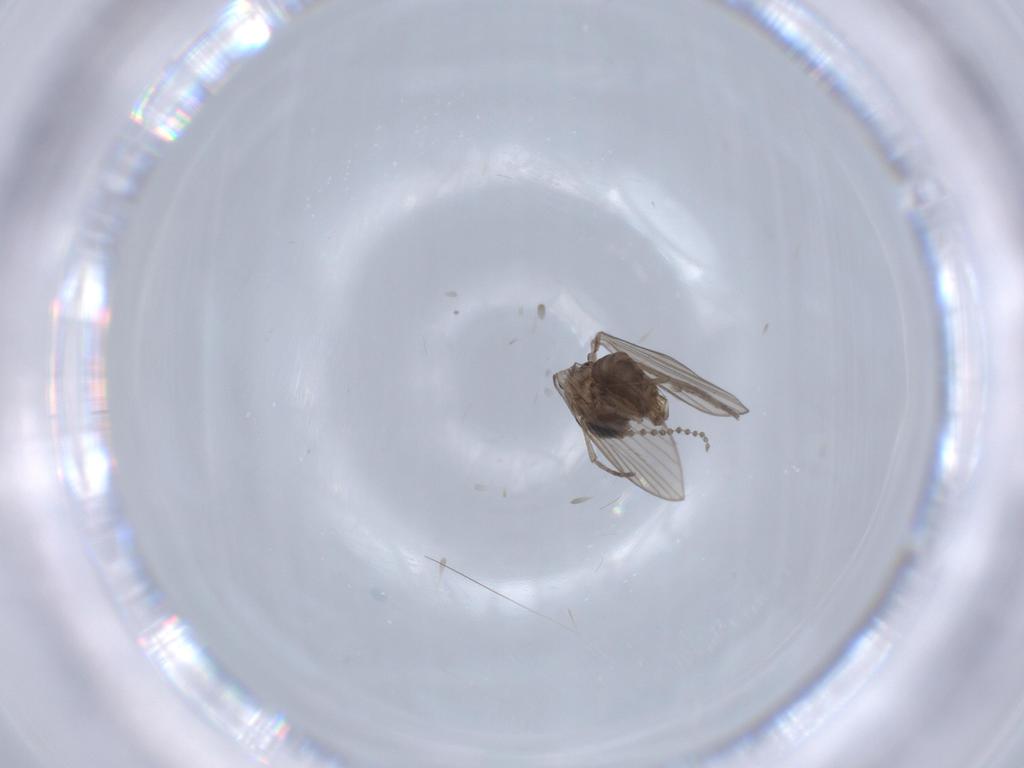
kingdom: Animalia
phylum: Arthropoda
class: Insecta
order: Diptera
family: Psychodidae
